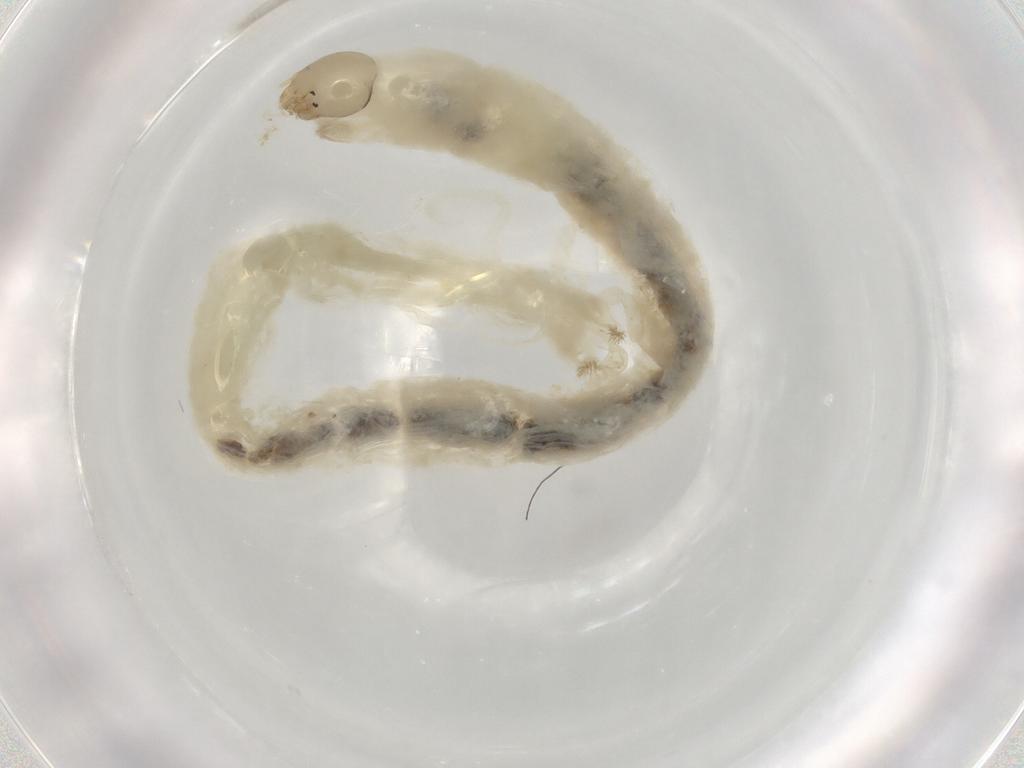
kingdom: Animalia
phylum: Arthropoda
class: Insecta
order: Diptera
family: Chironomidae
